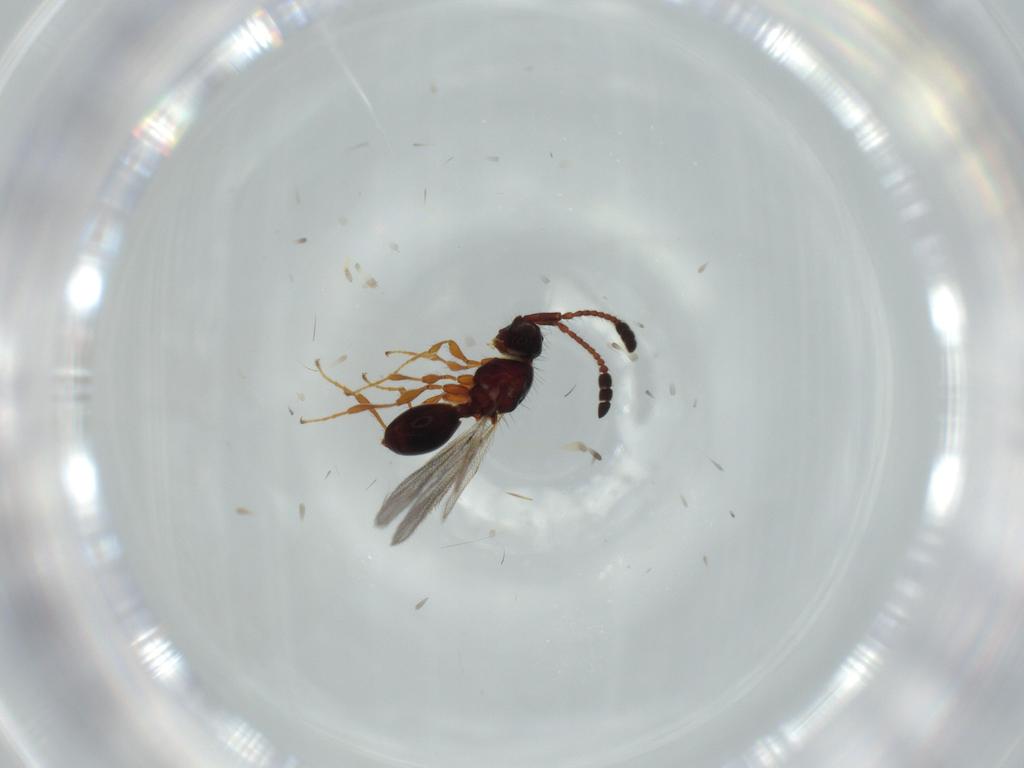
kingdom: Animalia
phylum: Arthropoda
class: Insecta
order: Hymenoptera
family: Diapriidae
